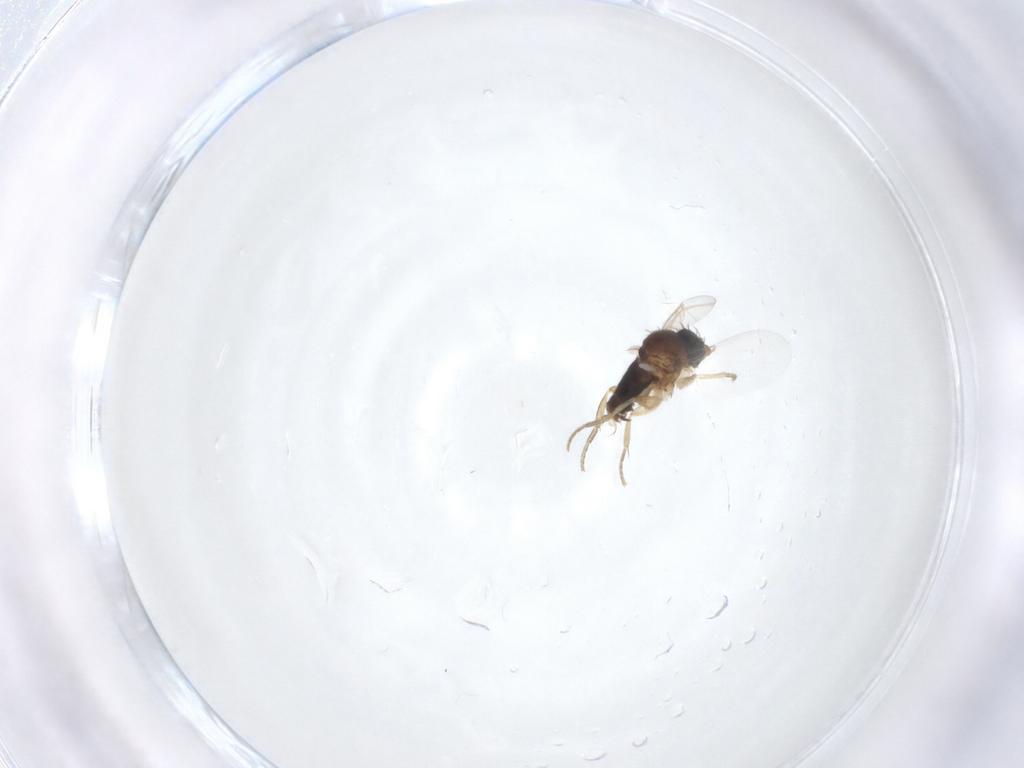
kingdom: Animalia
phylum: Arthropoda
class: Insecta
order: Diptera
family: Phoridae
